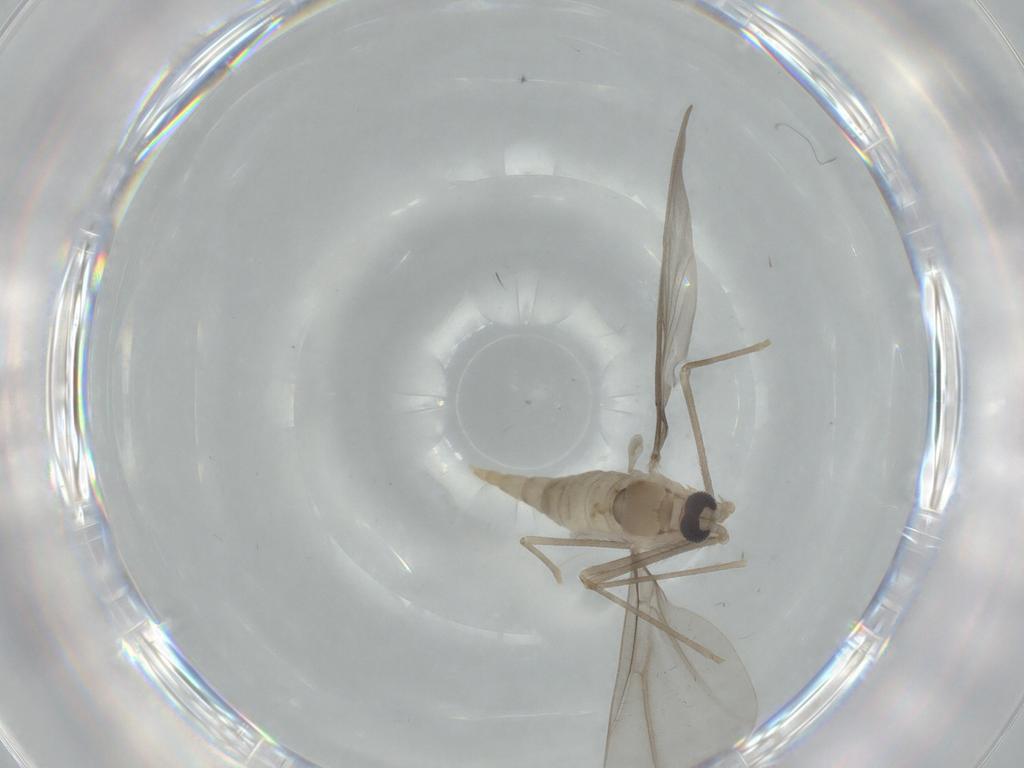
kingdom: Animalia
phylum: Arthropoda
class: Insecta
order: Diptera
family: Cecidomyiidae
